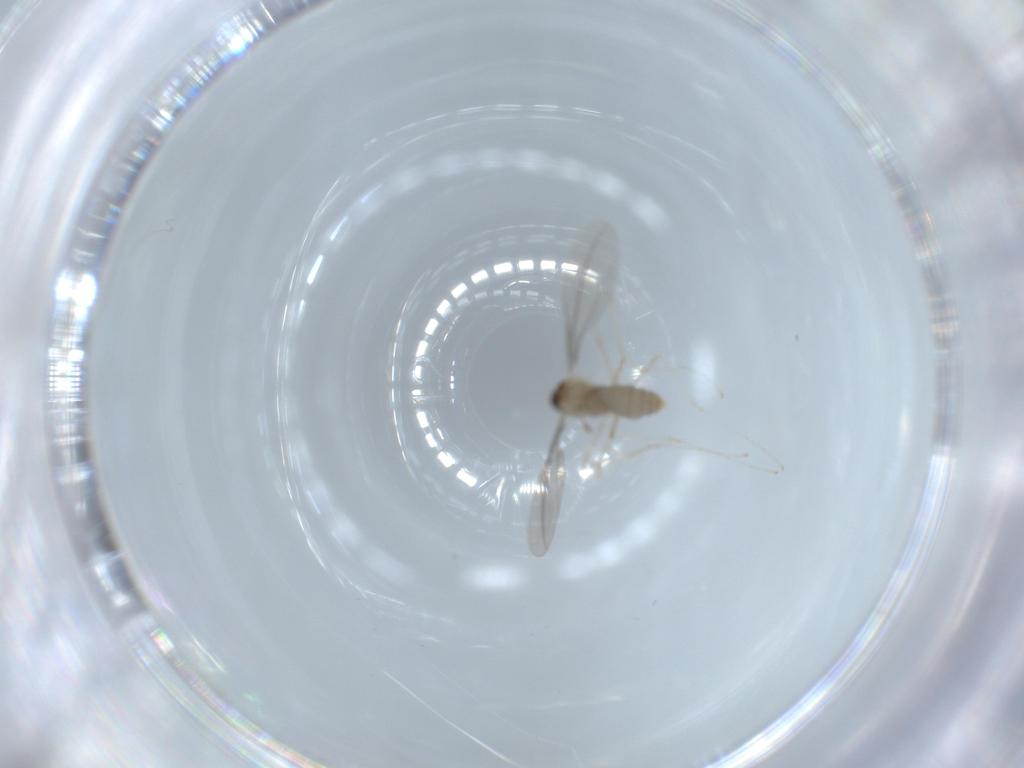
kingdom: Animalia
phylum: Arthropoda
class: Insecta
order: Diptera
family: Cecidomyiidae
